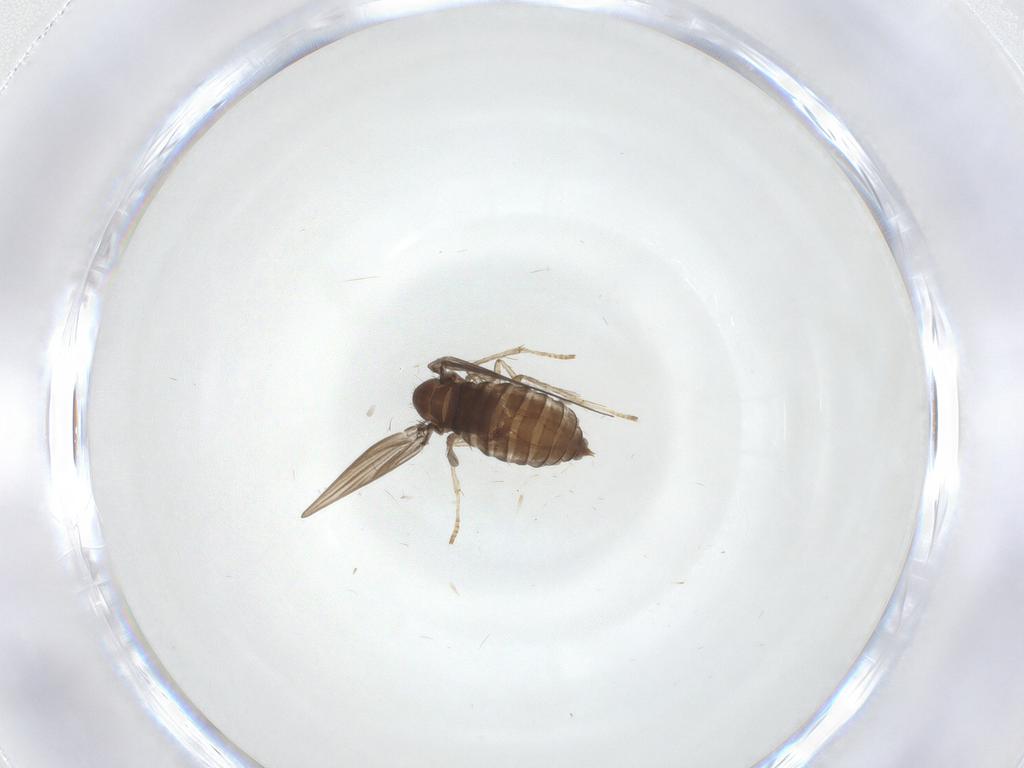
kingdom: Animalia
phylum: Arthropoda
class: Insecta
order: Diptera
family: Psychodidae
